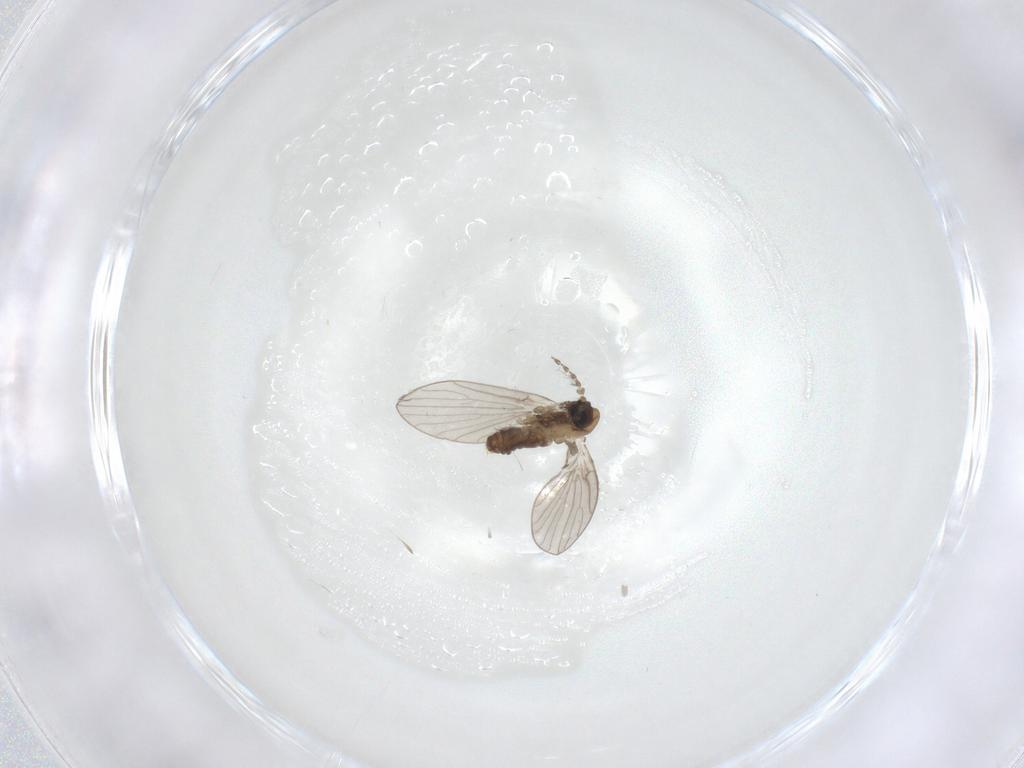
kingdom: Animalia
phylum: Arthropoda
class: Insecta
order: Diptera
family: Psychodidae
